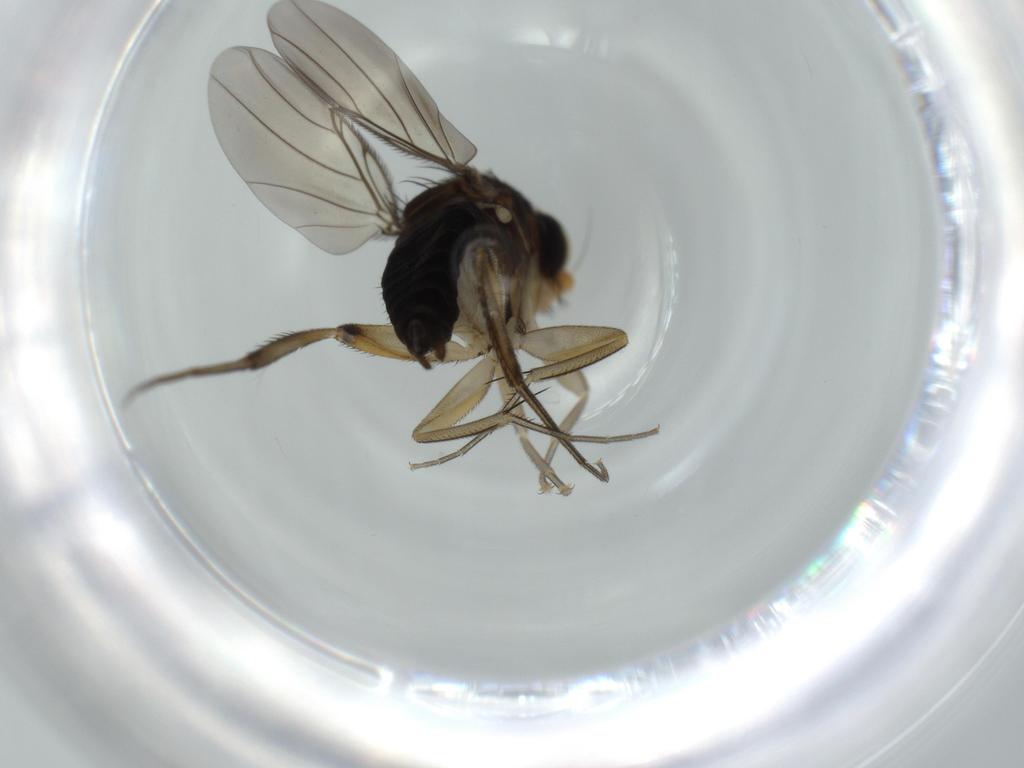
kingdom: Animalia
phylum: Arthropoda
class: Insecta
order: Diptera
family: Phoridae
